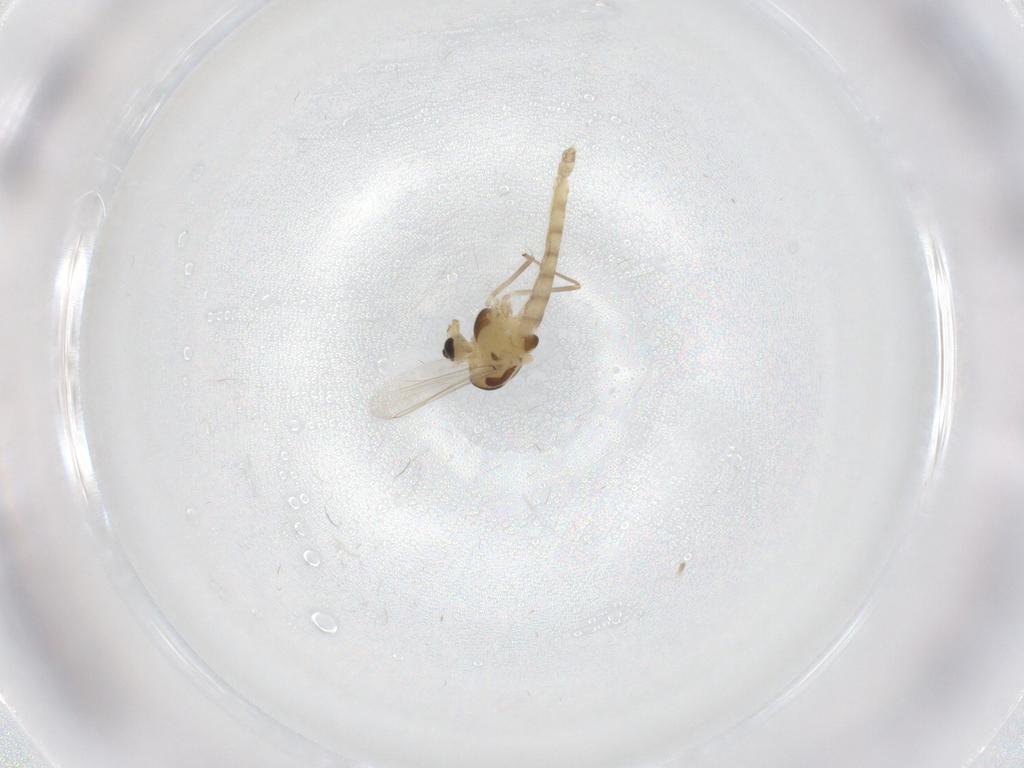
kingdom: Animalia
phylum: Arthropoda
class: Insecta
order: Diptera
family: Chironomidae
